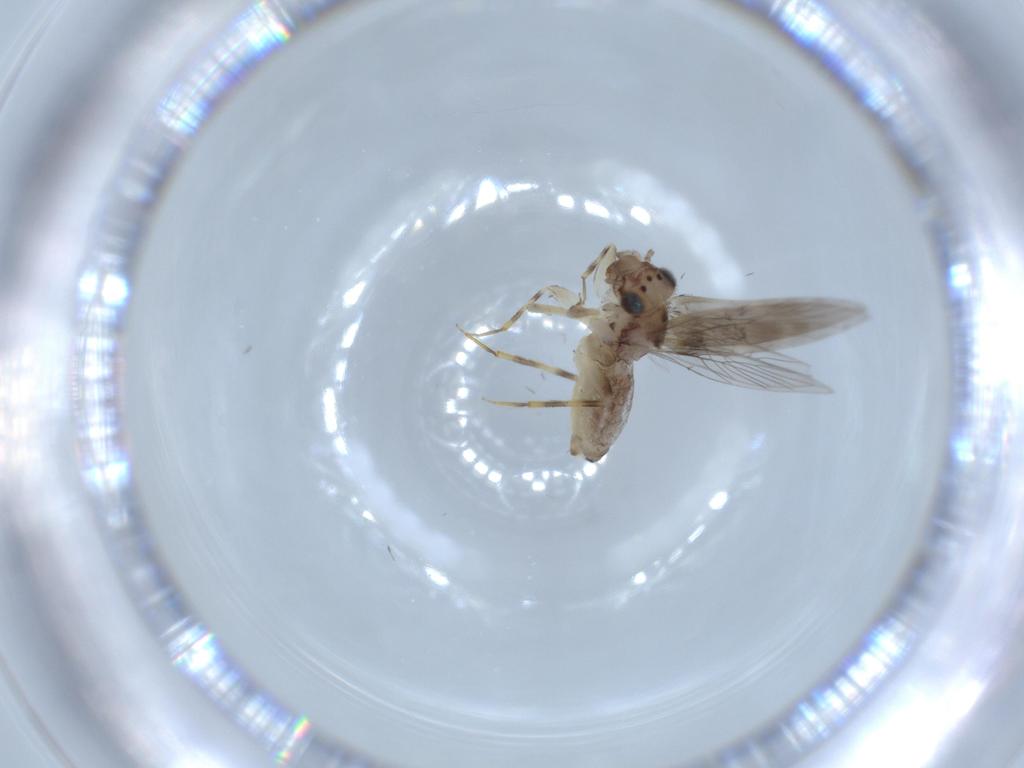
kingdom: Animalia
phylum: Arthropoda
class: Insecta
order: Psocodea
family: Lepidopsocidae
